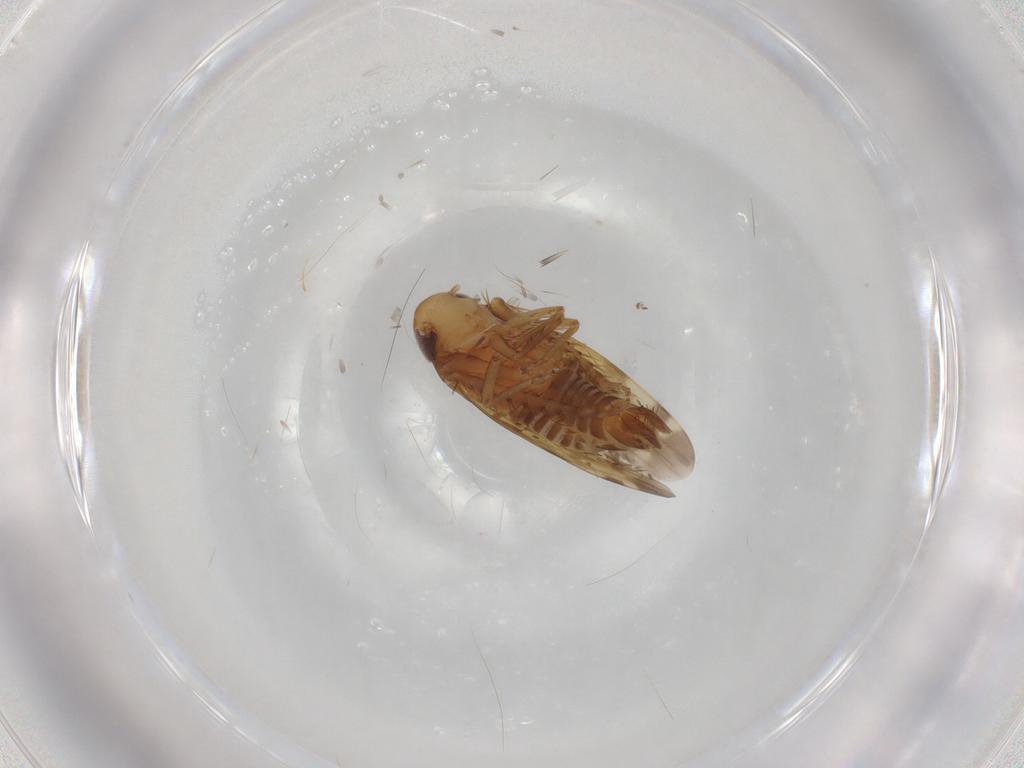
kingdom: Animalia
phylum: Arthropoda
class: Insecta
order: Hemiptera
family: Cicadellidae
